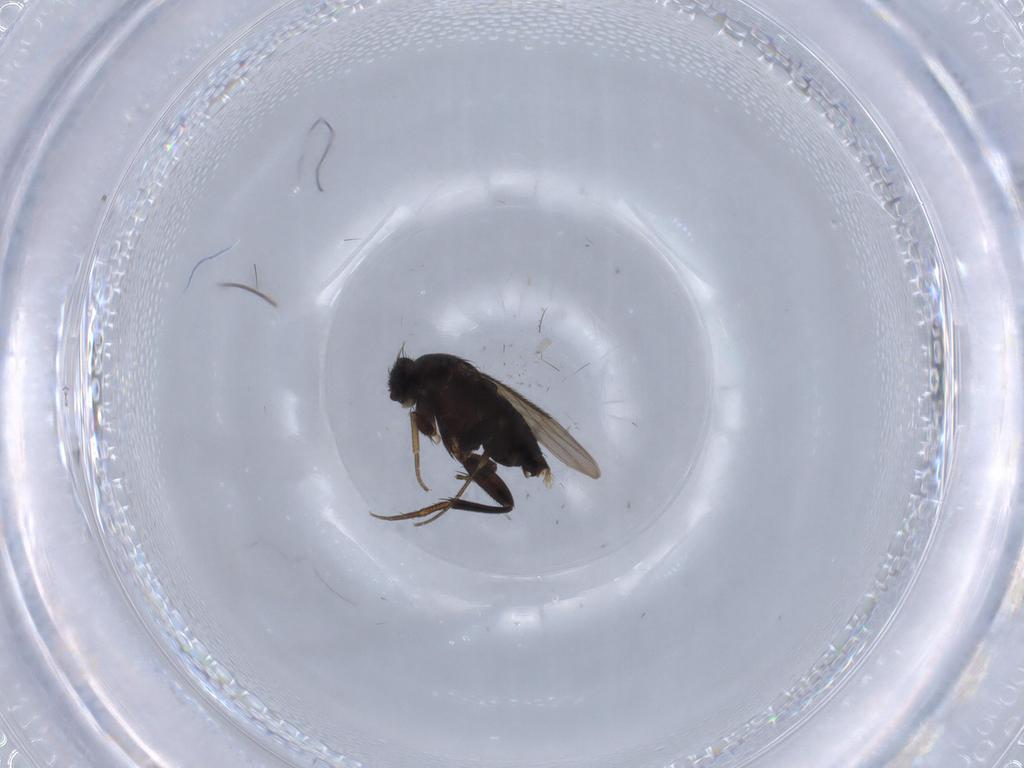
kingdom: Animalia
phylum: Arthropoda
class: Insecta
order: Diptera
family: Phoridae
